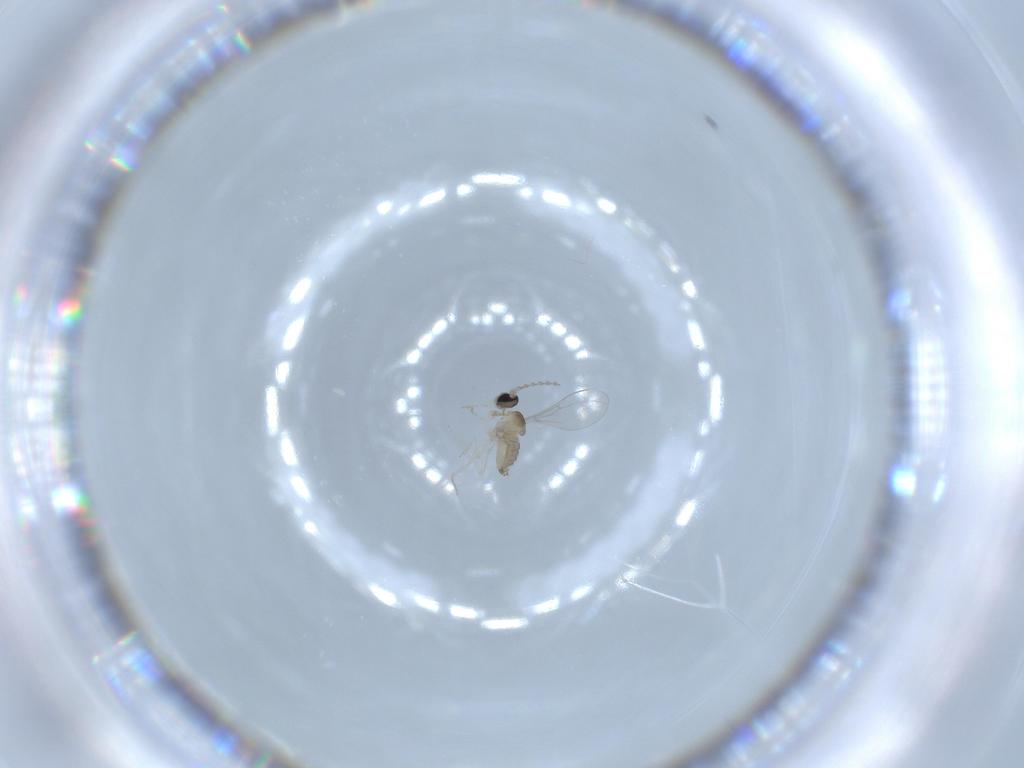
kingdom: Animalia
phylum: Arthropoda
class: Insecta
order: Diptera
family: Cecidomyiidae
